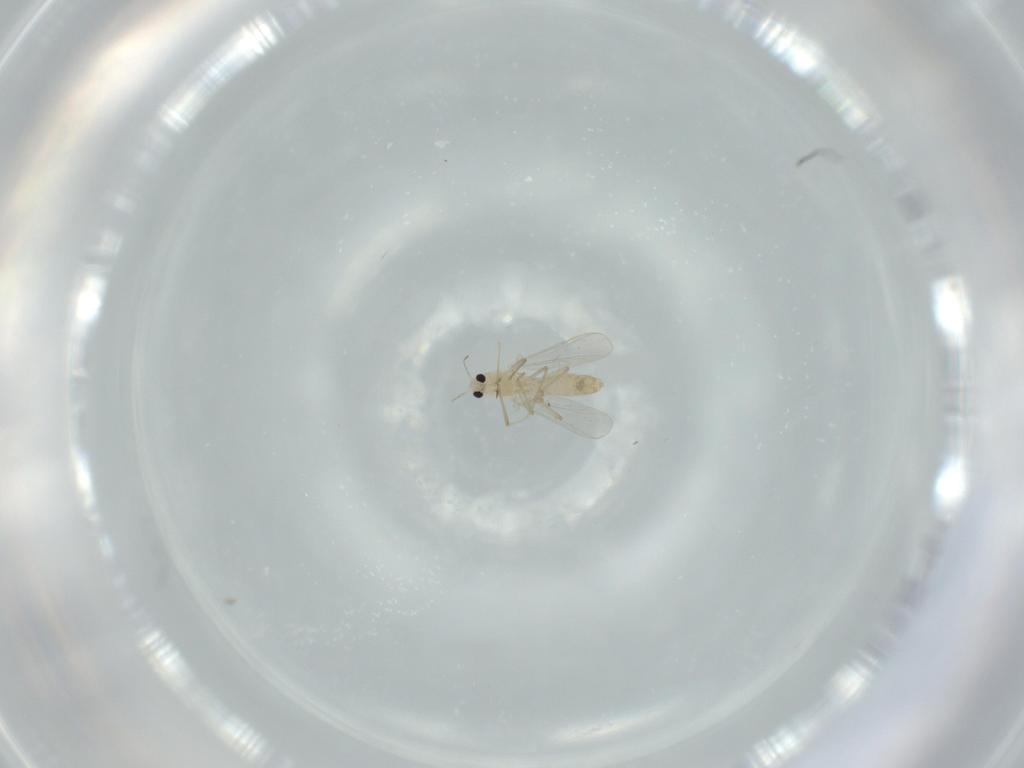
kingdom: Animalia
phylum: Arthropoda
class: Insecta
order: Diptera
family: Chironomidae
